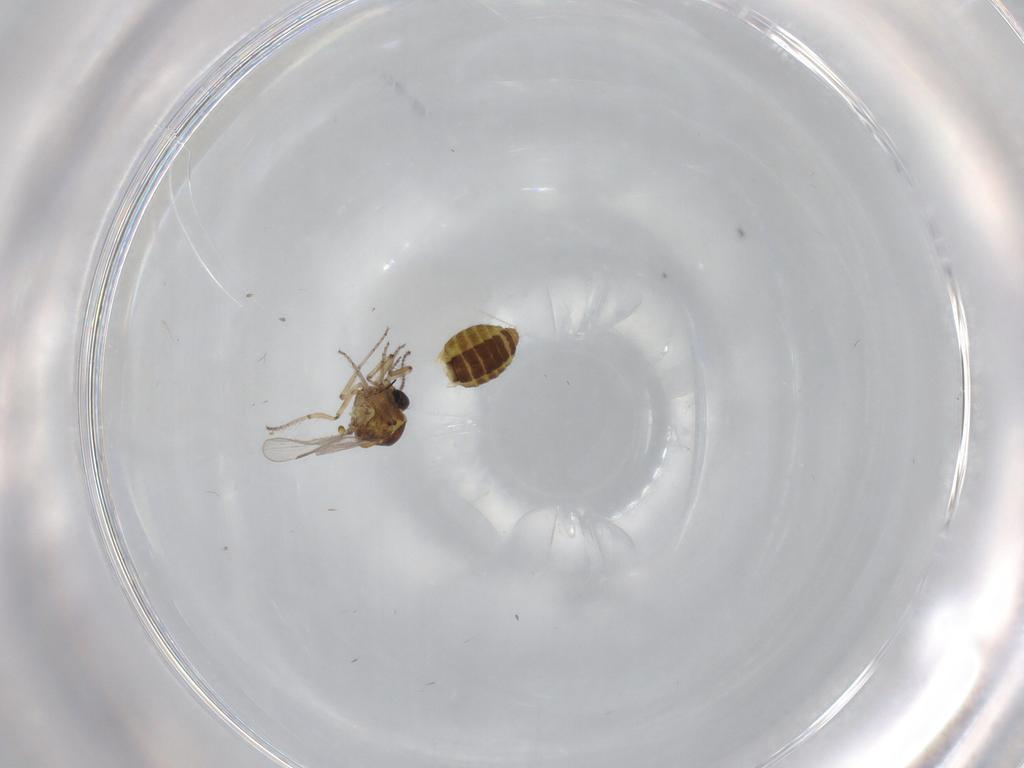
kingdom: Animalia
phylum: Arthropoda
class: Insecta
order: Diptera
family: Ceratopogonidae
